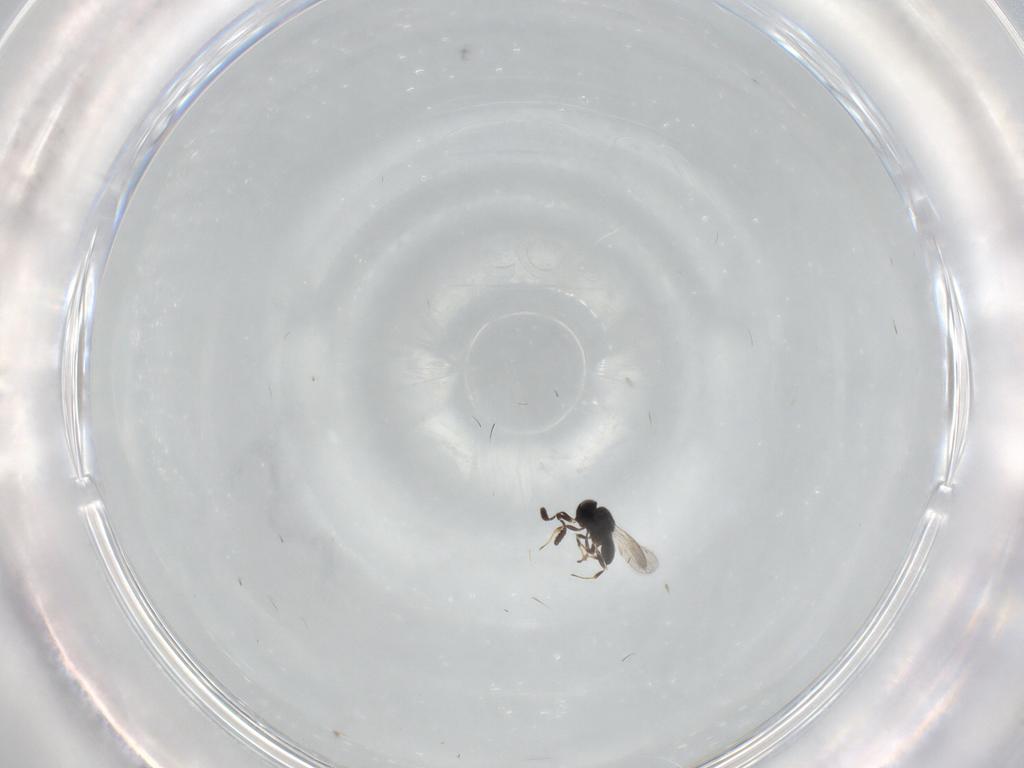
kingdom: Animalia
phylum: Arthropoda
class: Insecta
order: Hymenoptera
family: Scelionidae
